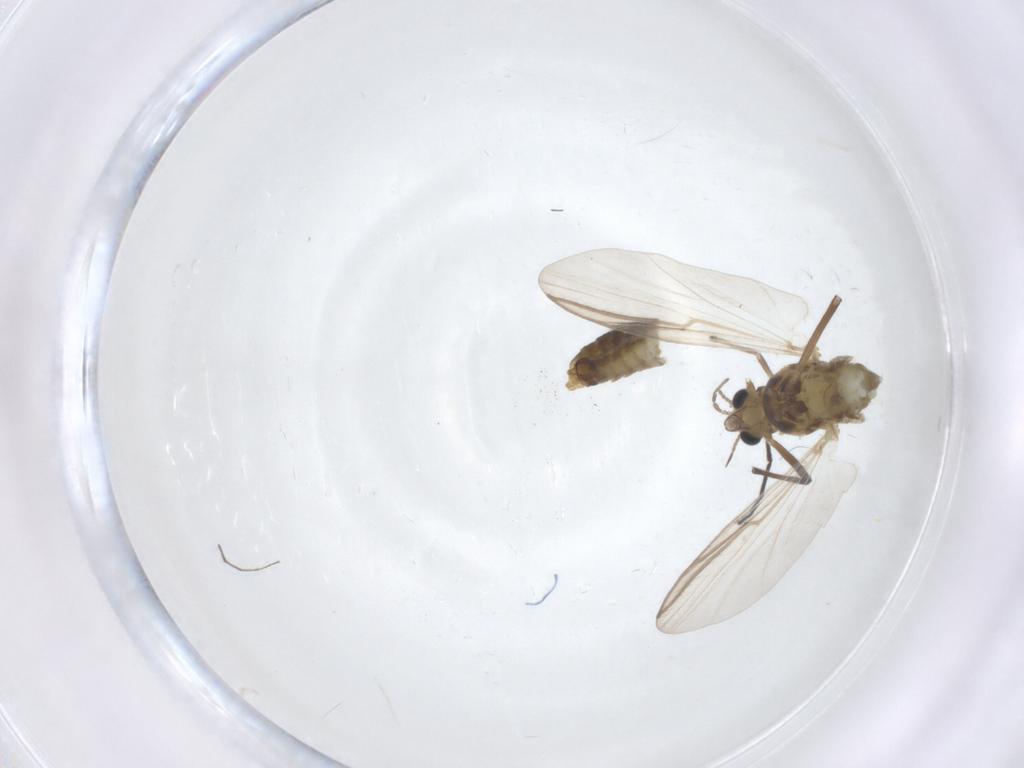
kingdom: Animalia
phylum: Arthropoda
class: Insecta
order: Diptera
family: Chironomidae
